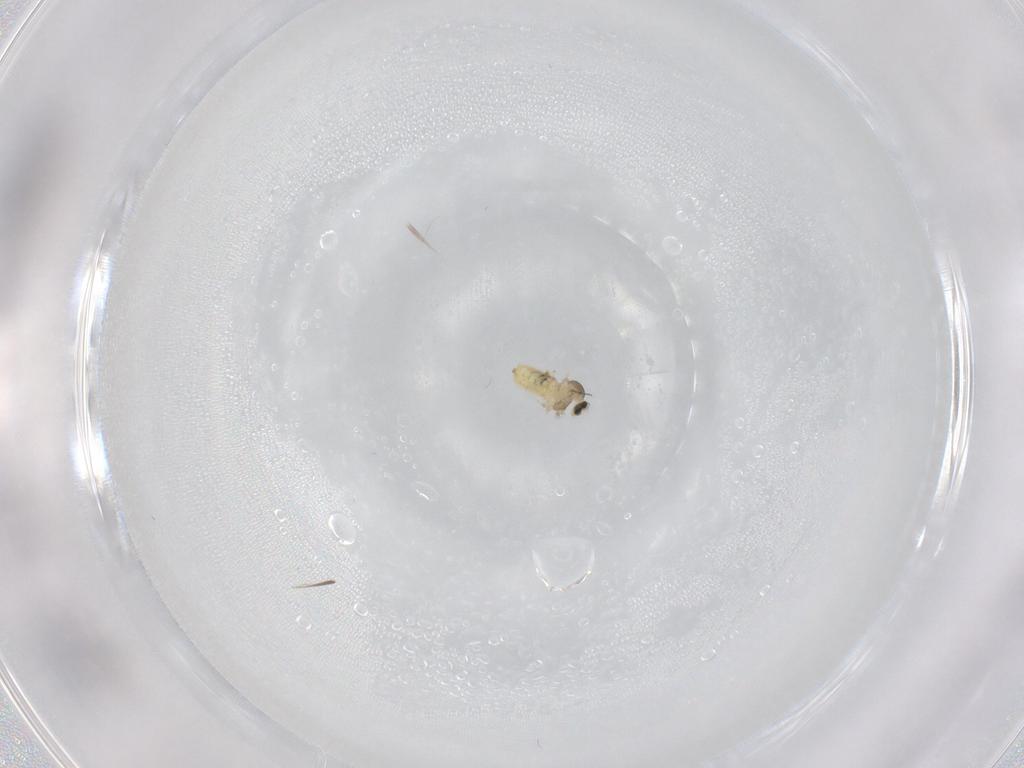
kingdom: Animalia
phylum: Arthropoda
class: Insecta
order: Diptera
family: Cecidomyiidae
